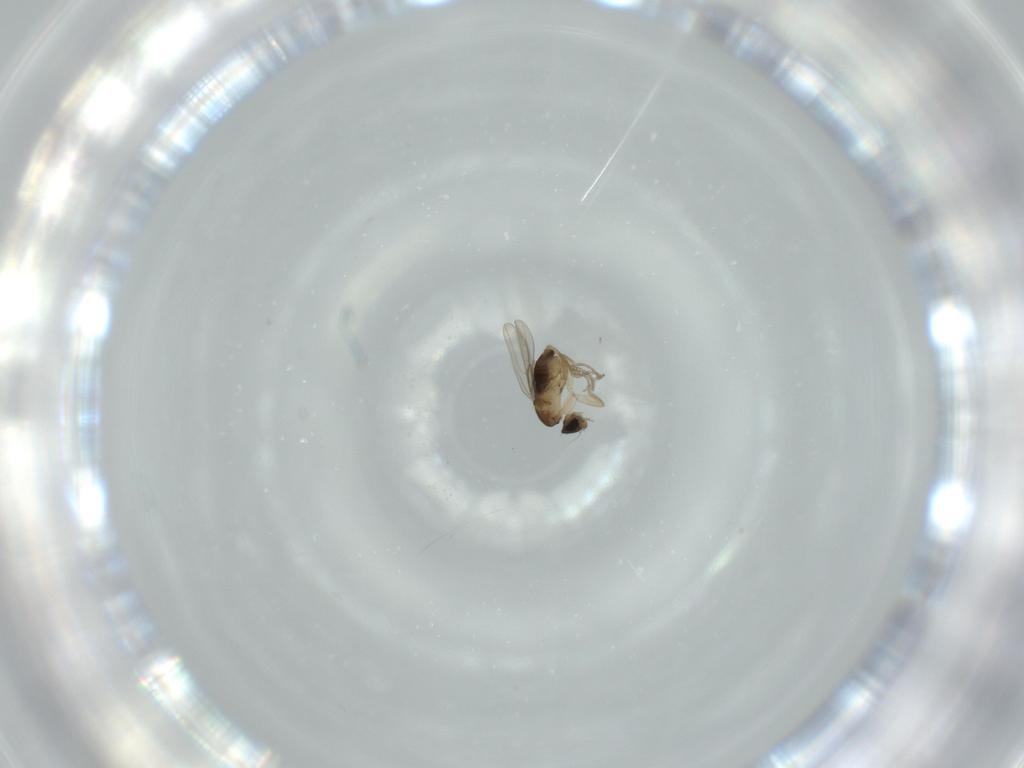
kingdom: Animalia
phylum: Arthropoda
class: Insecta
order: Diptera
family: Phoridae
